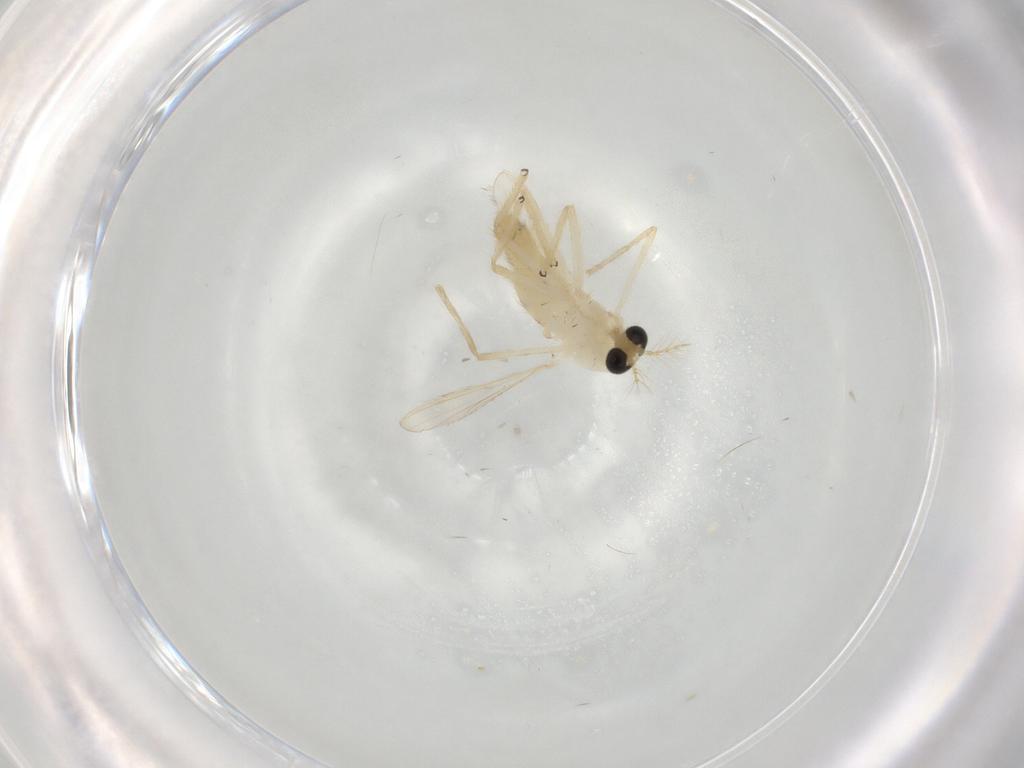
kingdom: Animalia
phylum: Arthropoda
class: Insecta
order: Diptera
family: Chironomidae
